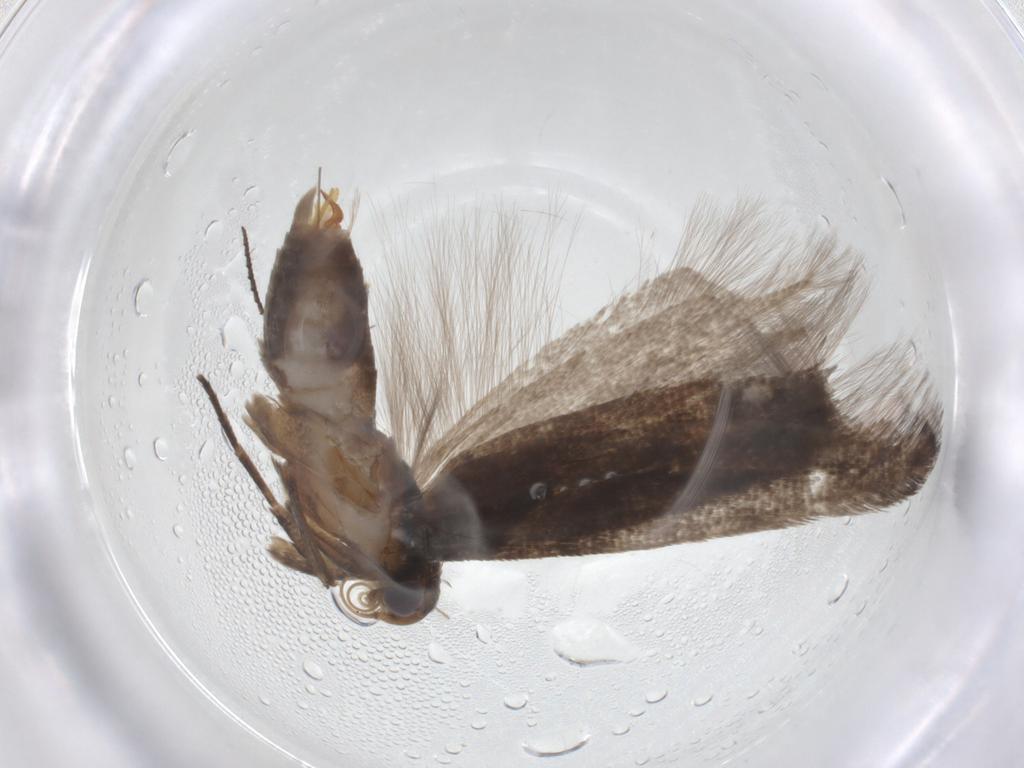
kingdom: Animalia
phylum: Arthropoda
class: Insecta
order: Lepidoptera
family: Gelechiidae
